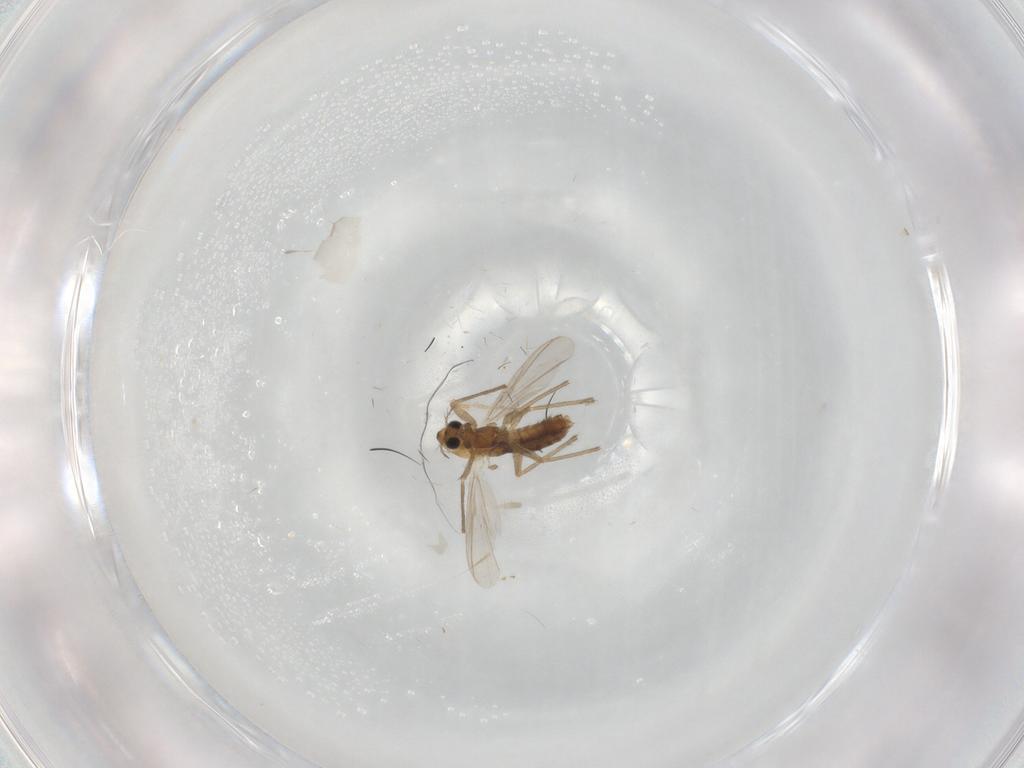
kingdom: Animalia
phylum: Arthropoda
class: Insecta
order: Diptera
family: Chironomidae
